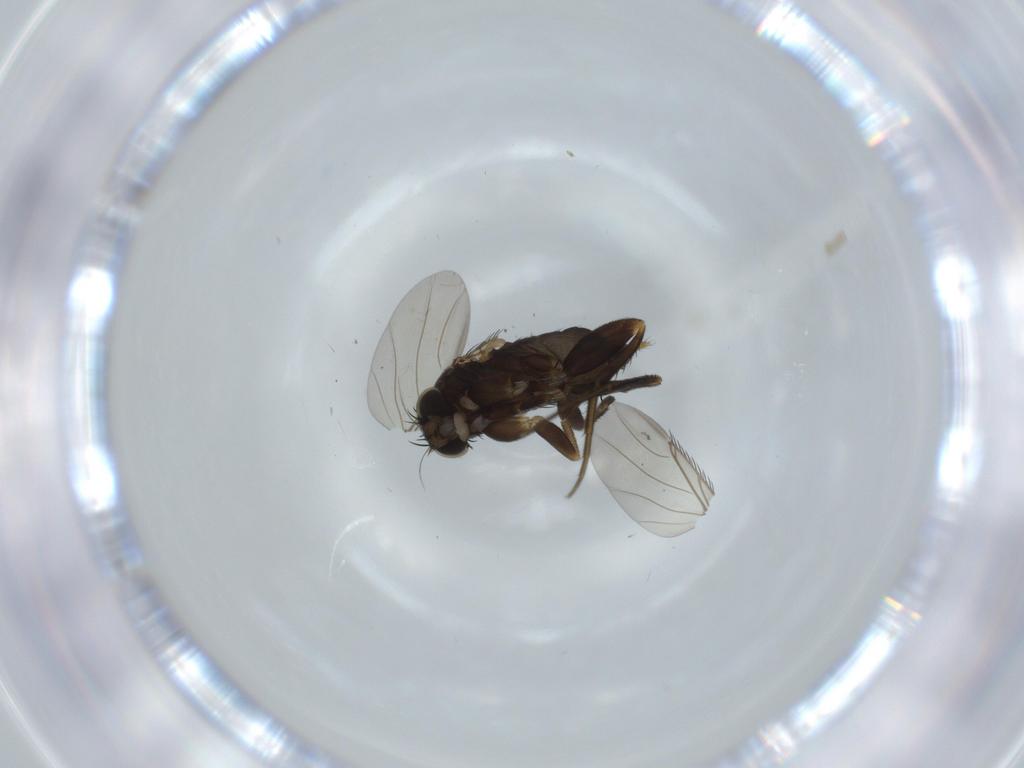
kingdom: Animalia
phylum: Arthropoda
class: Insecta
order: Diptera
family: Phoridae
